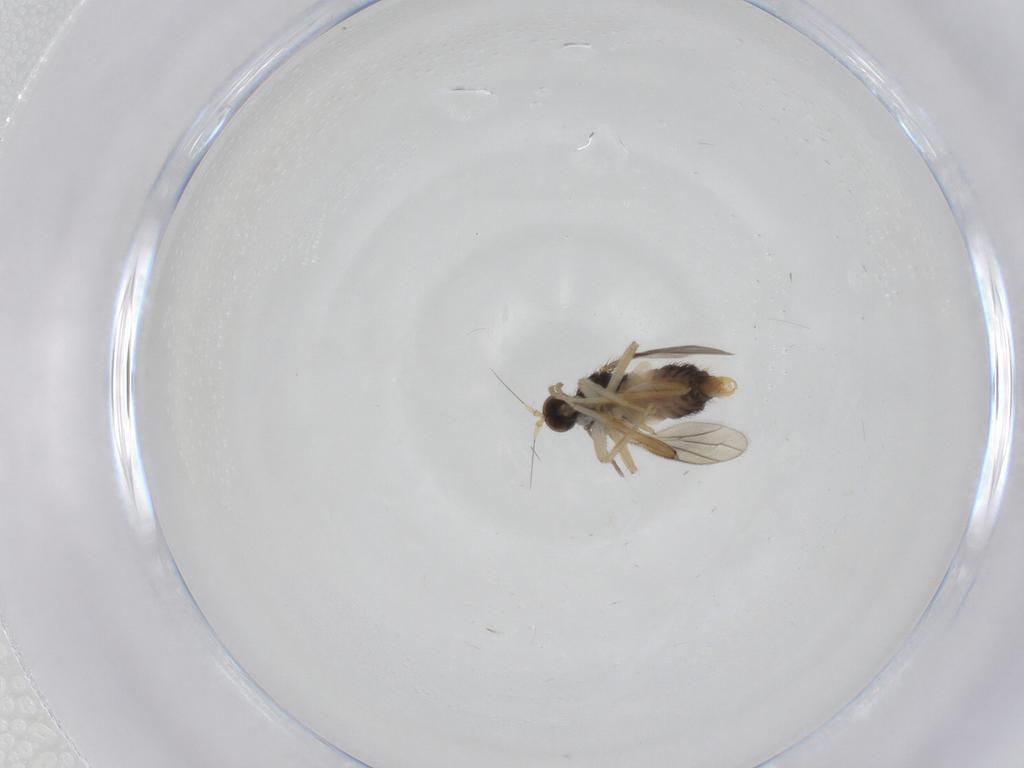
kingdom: Animalia
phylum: Arthropoda
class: Insecta
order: Diptera
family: Hybotidae
